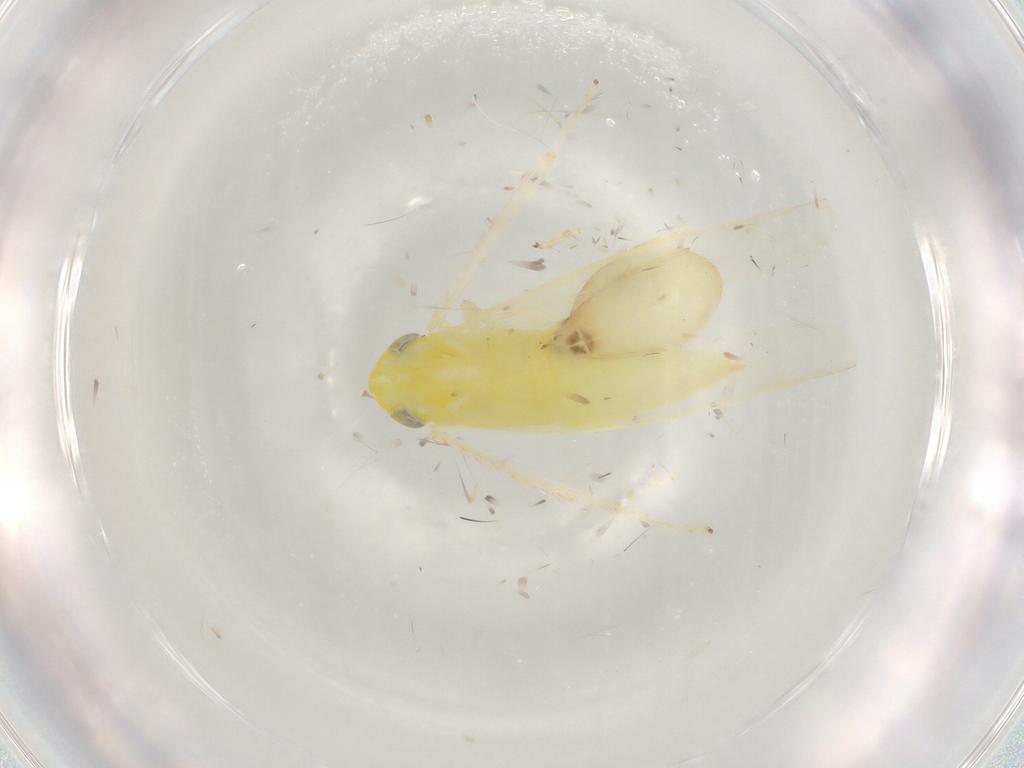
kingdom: Animalia
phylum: Arthropoda
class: Insecta
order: Hemiptera
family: Cicadellidae
